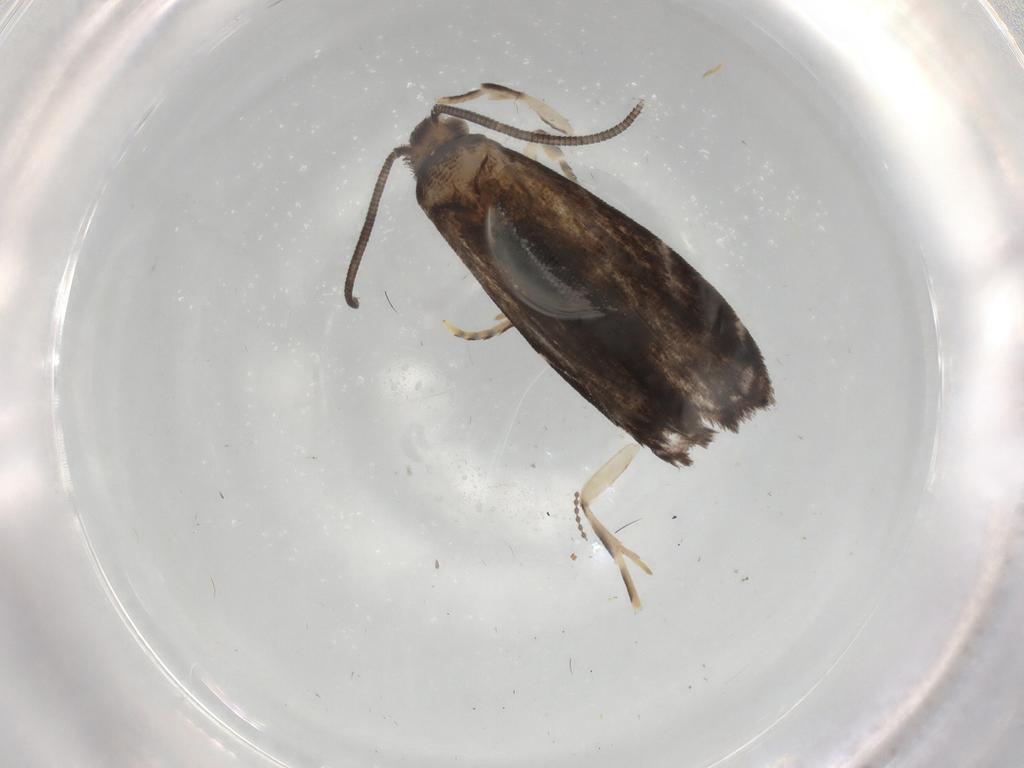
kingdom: Animalia
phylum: Arthropoda
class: Insecta
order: Lepidoptera
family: Dryadaulidae
